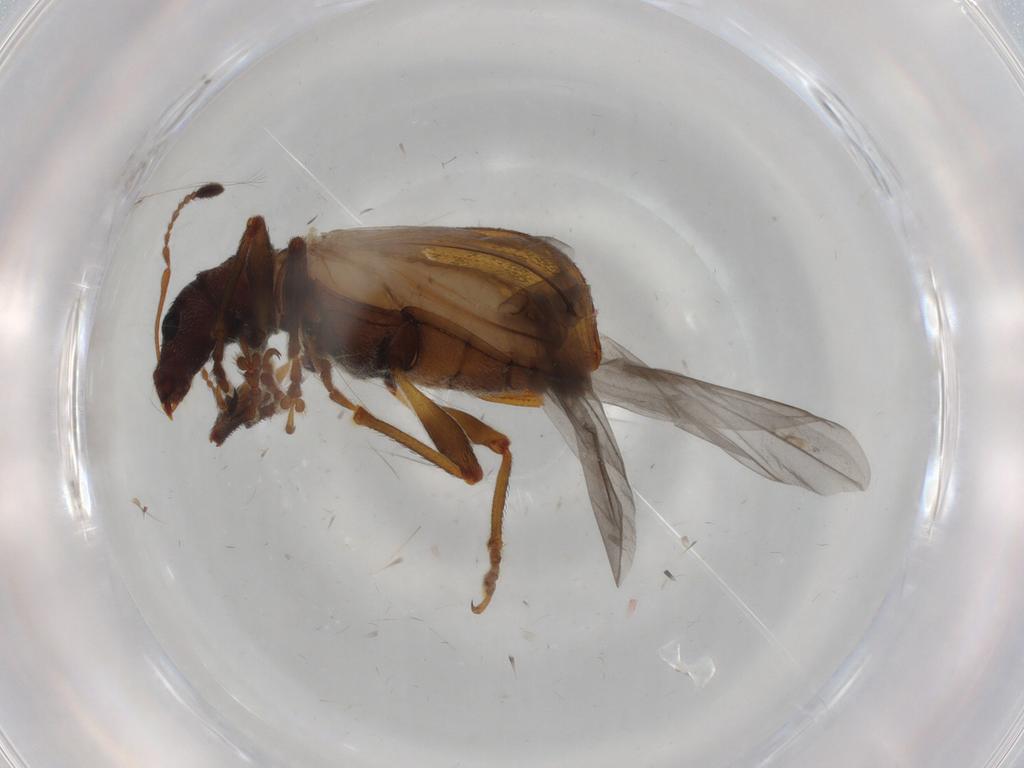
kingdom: Animalia
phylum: Arthropoda
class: Insecta
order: Coleoptera
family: Curculionidae
